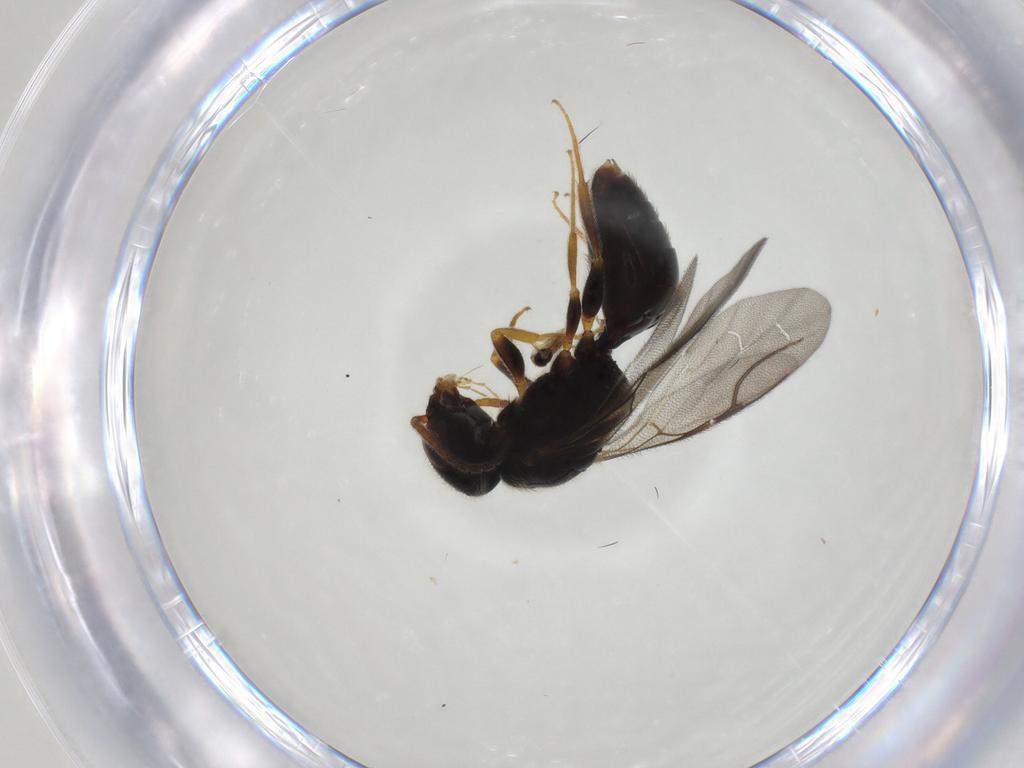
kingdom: Animalia
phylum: Arthropoda
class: Insecta
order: Hymenoptera
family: Bethylidae
